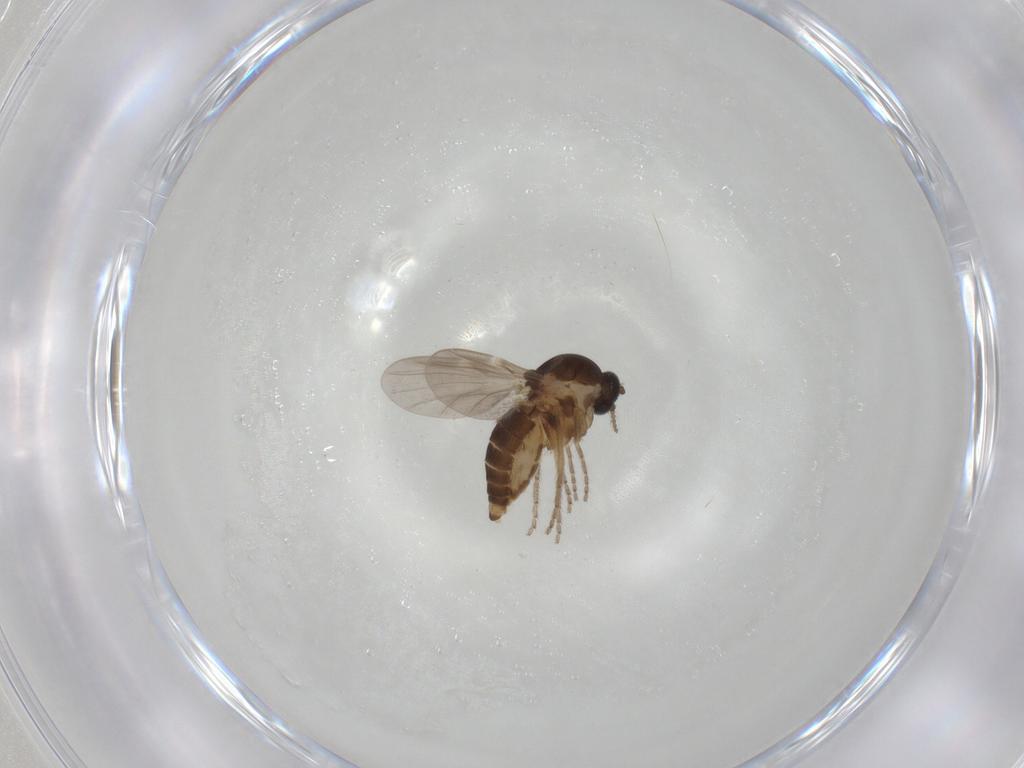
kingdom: Animalia
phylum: Arthropoda
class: Insecta
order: Diptera
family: Ceratopogonidae
